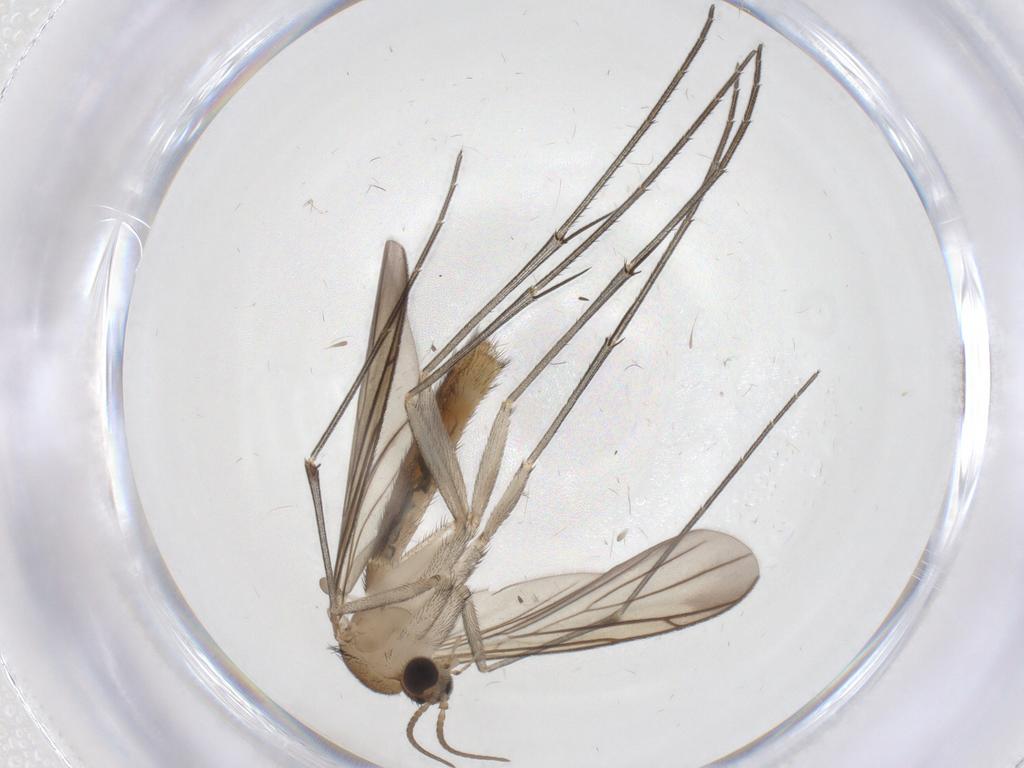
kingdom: Animalia
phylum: Arthropoda
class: Insecta
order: Diptera
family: Keroplatidae
